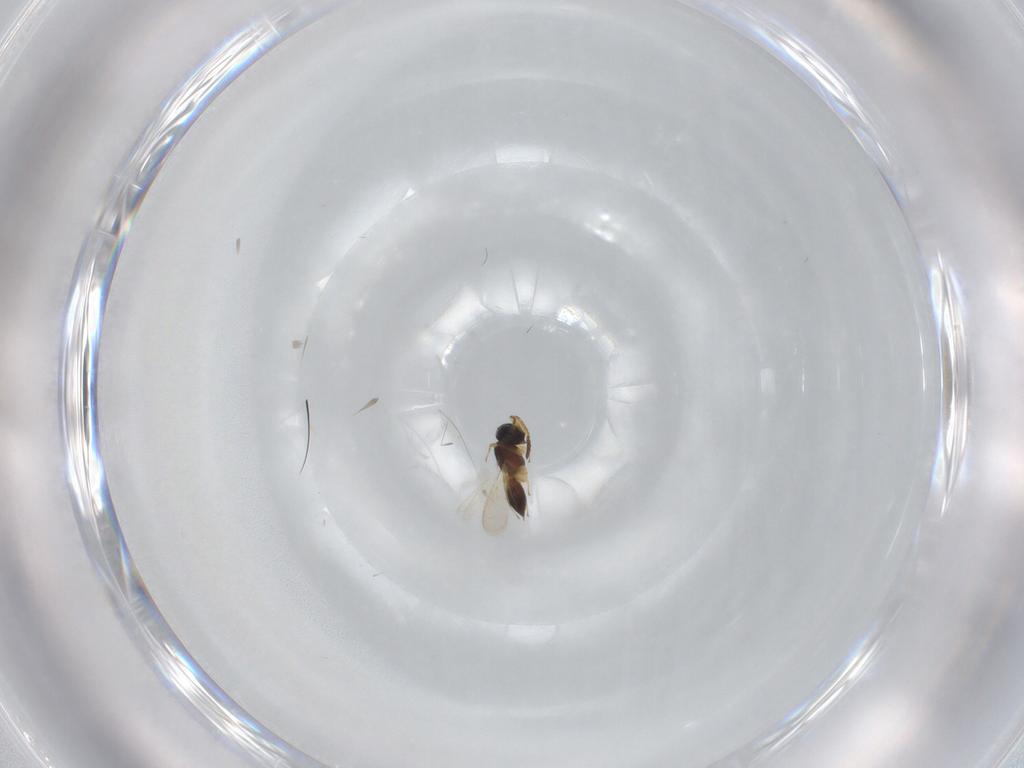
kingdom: Animalia
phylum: Arthropoda
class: Insecta
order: Hymenoptera
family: Scelionidae
